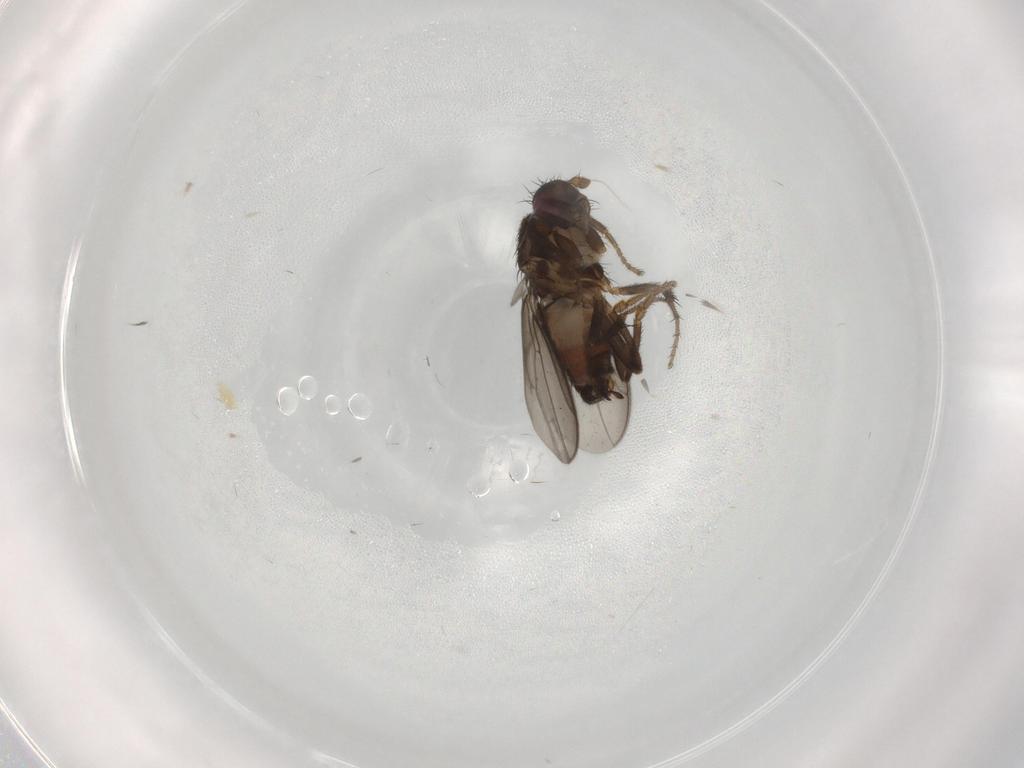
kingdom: Animalia
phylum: Arthropoda
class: Insecta
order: Diptera
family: Sphaeroceridae
